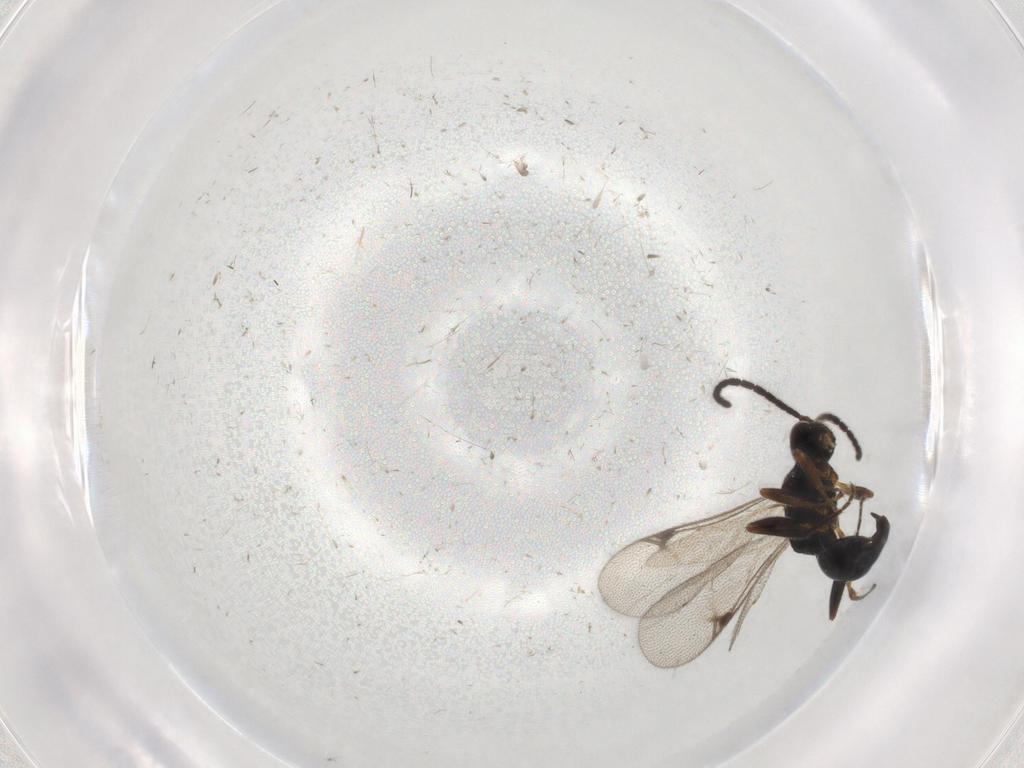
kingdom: Animalia
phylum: Arthropoda
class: Insecta
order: Hymenoptera
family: Proctotrupidae
